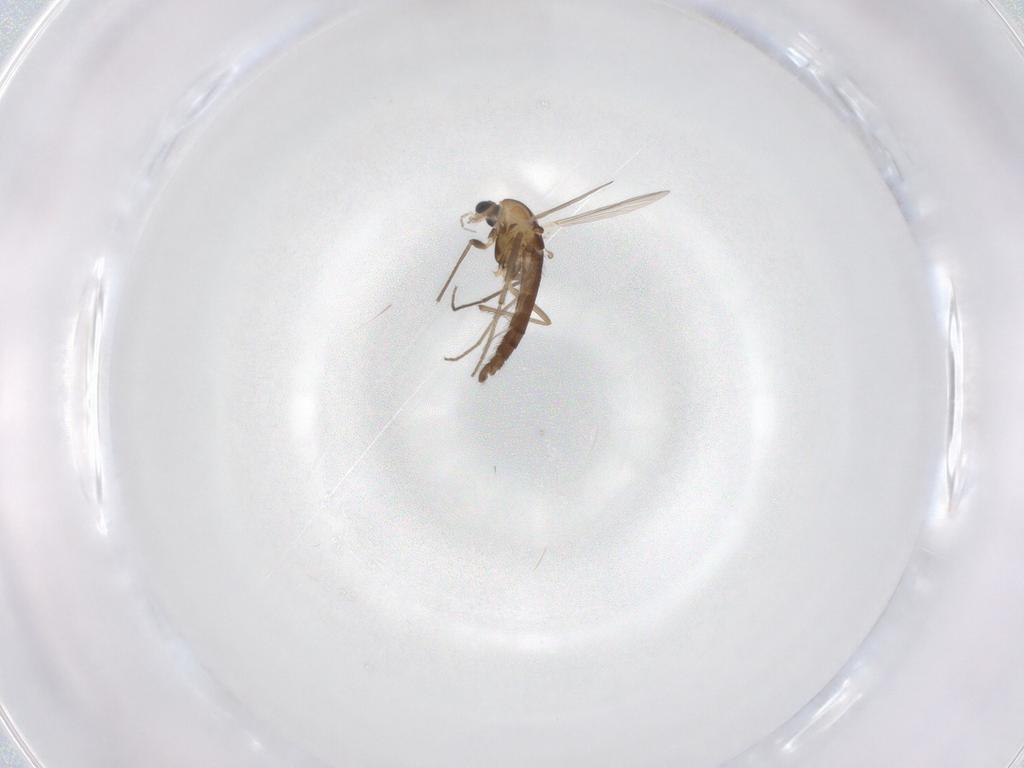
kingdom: Animalia
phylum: Arthropoda
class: Insecta
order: Diptera
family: Chironomidae
